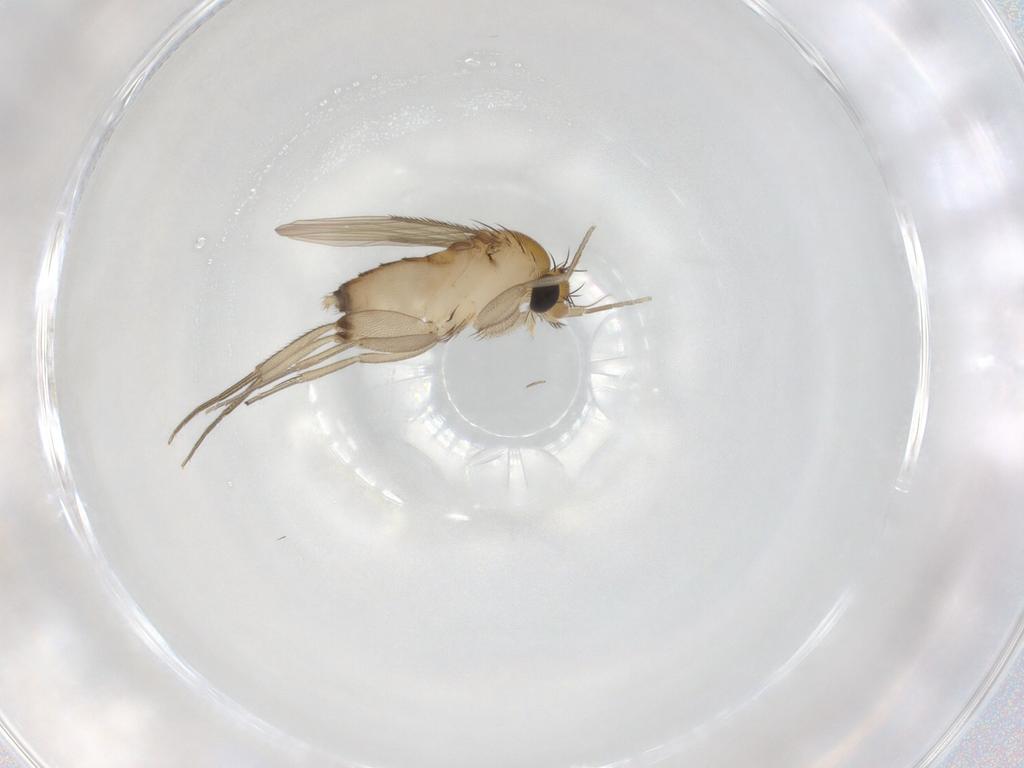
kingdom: Animalia
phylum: Arthropoda
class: Insecta
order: Diptera
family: Phoridae
